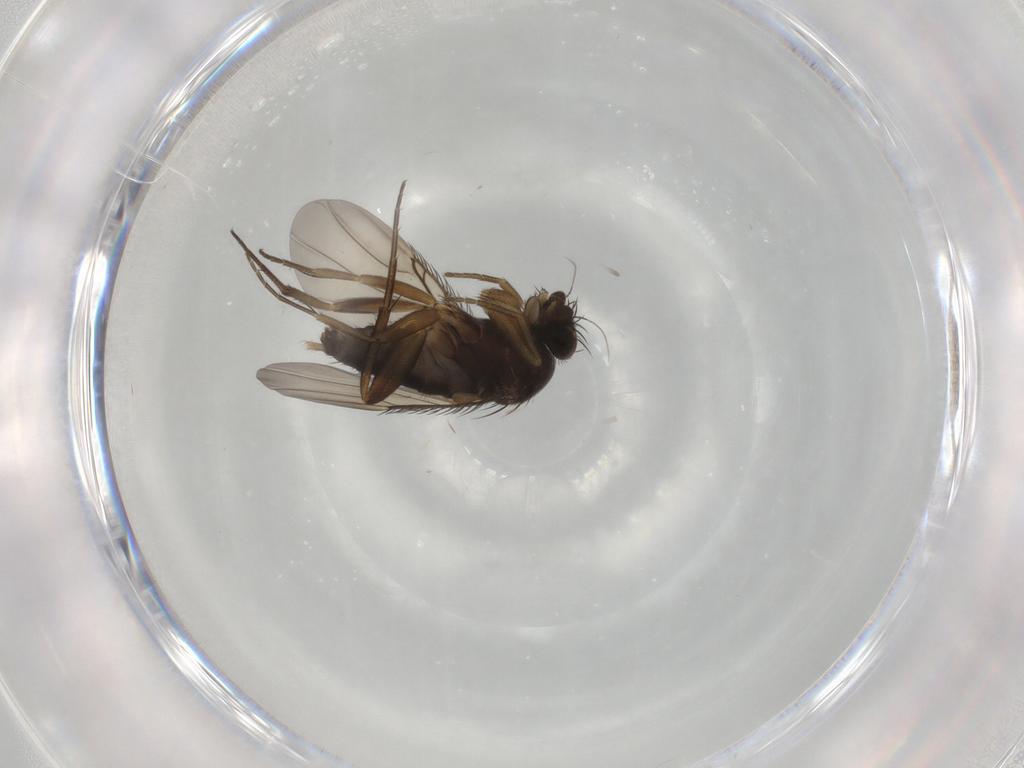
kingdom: Animalia
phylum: Arthropoda
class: Insecta
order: Diptera
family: Phoridae
